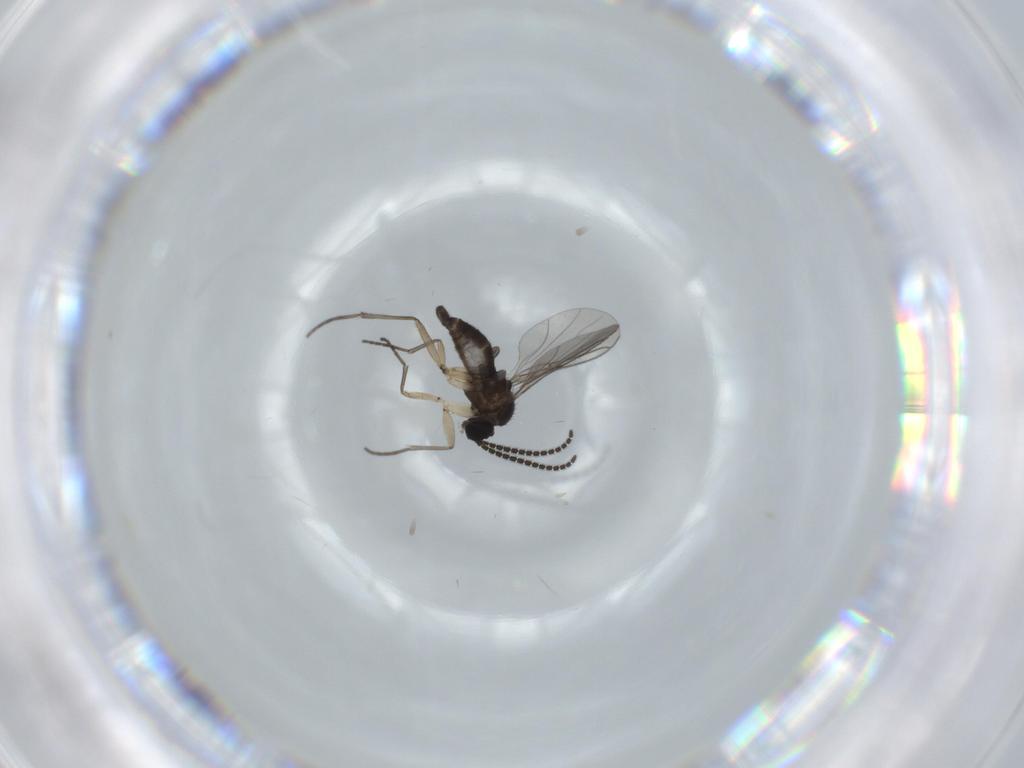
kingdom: Animalia
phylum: Arthropoda
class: Insecta
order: Diptera
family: Sciaridae
